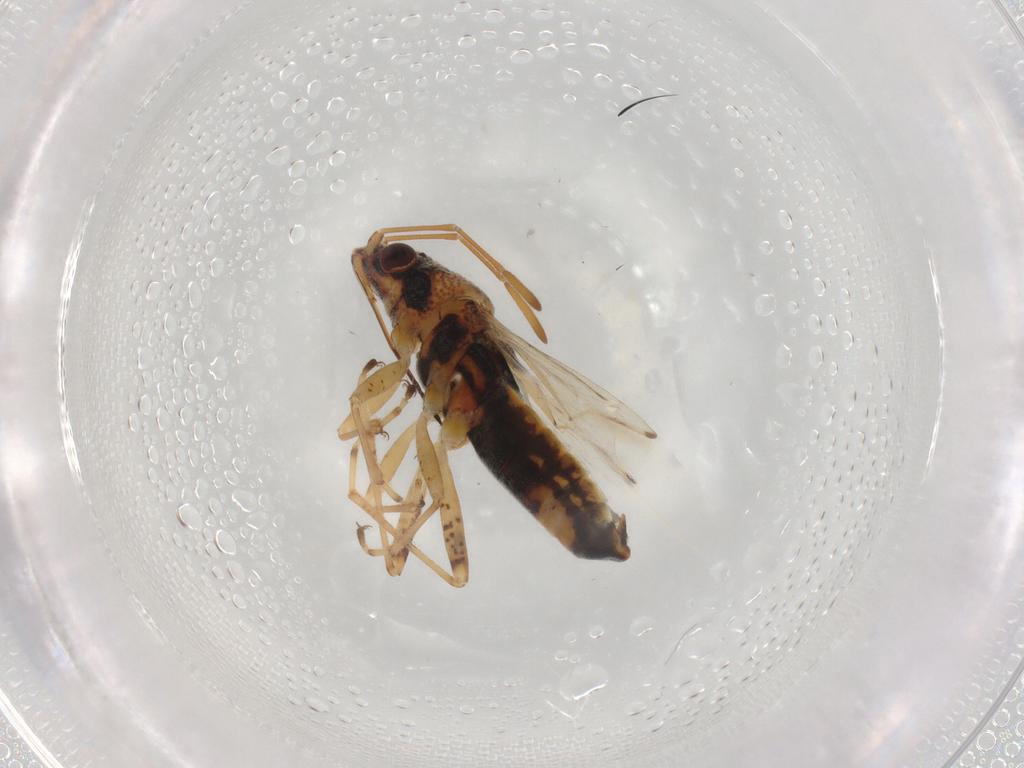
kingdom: Animalia
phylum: Arthropoda
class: Insecta
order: Hemiptera
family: Lygaeidae
